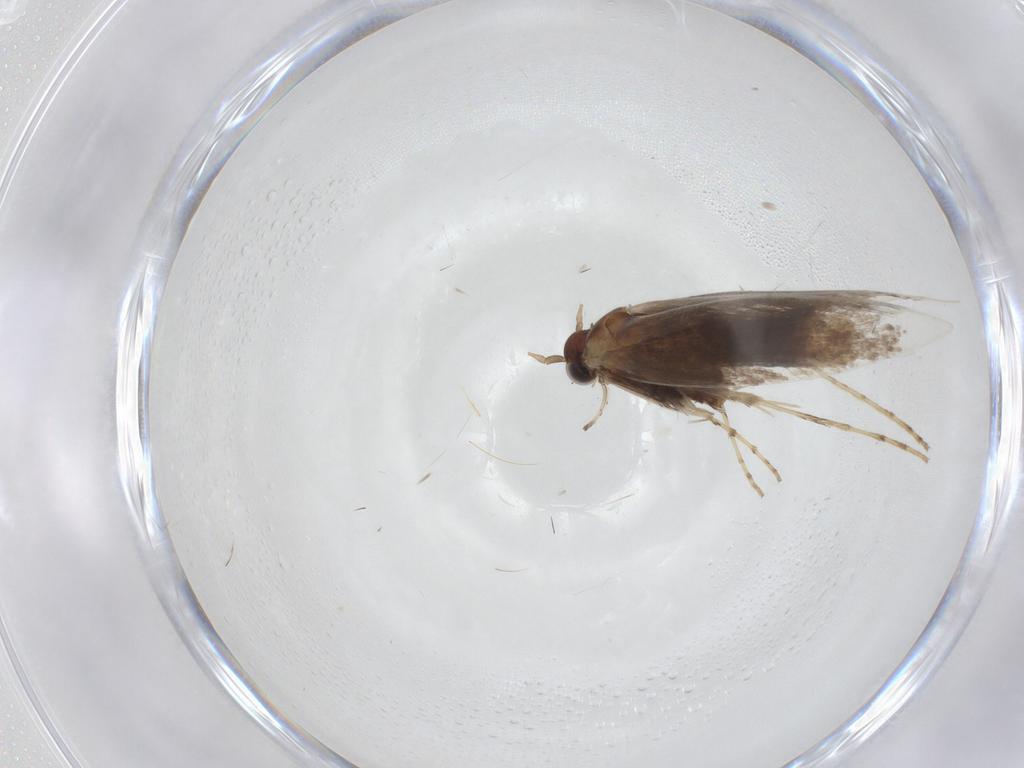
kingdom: Animalia
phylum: Arthropoda
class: Insecta
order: Lepidoptera
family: Gracillariidae
